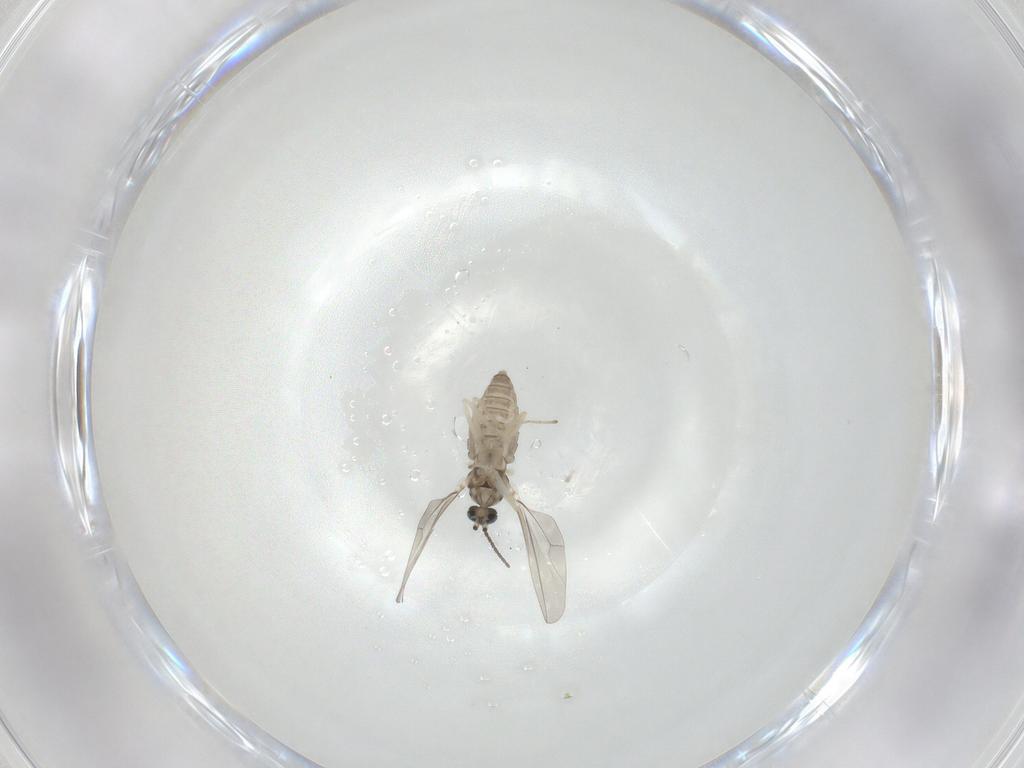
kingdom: Animalia
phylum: Arthropoda
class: Insecta
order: Diptera
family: Cecidomyiidae
